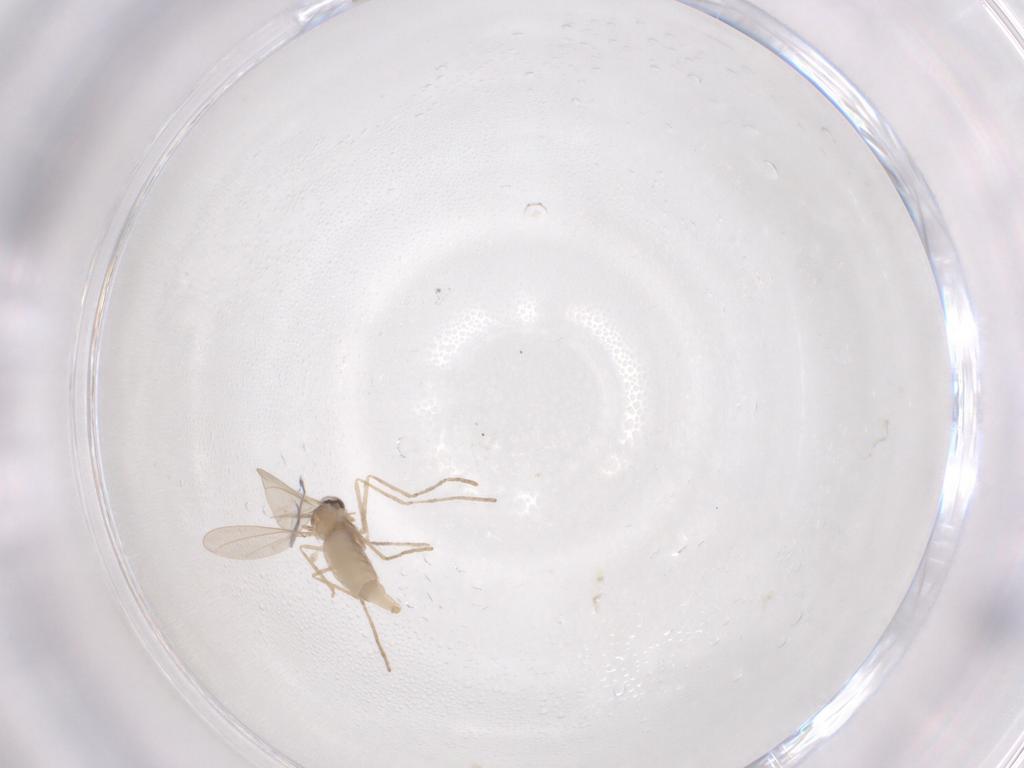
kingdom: Animalia
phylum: Arthropoda
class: Insecta
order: Diptera
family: Cecidomyiidae
